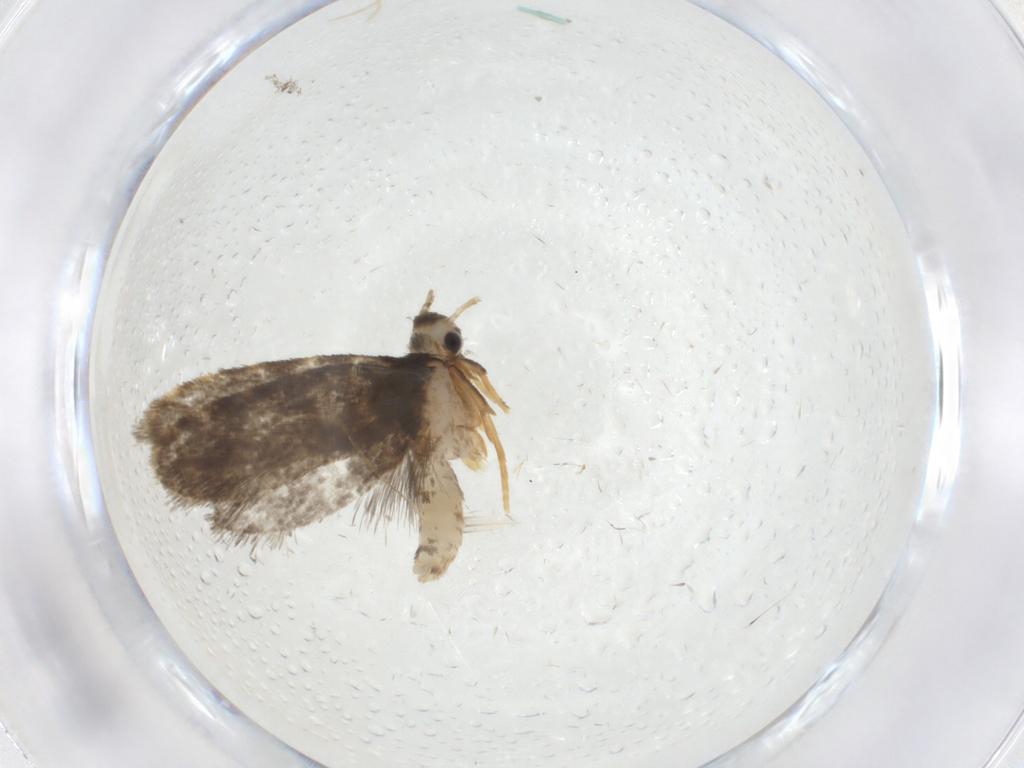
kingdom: Animalia
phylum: Arthropoda
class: Insecta
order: Lepidoptera
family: Psychidae
